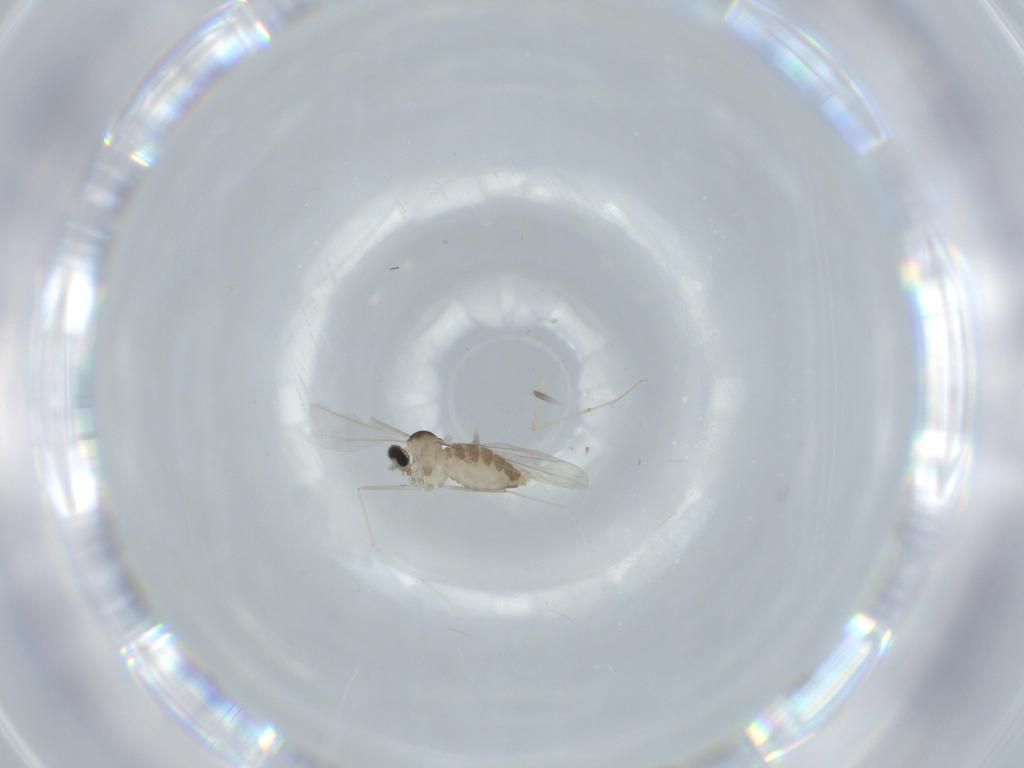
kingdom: Animalia
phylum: Arthropoda
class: Insecta
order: Diptera
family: Cecidomyiidae
